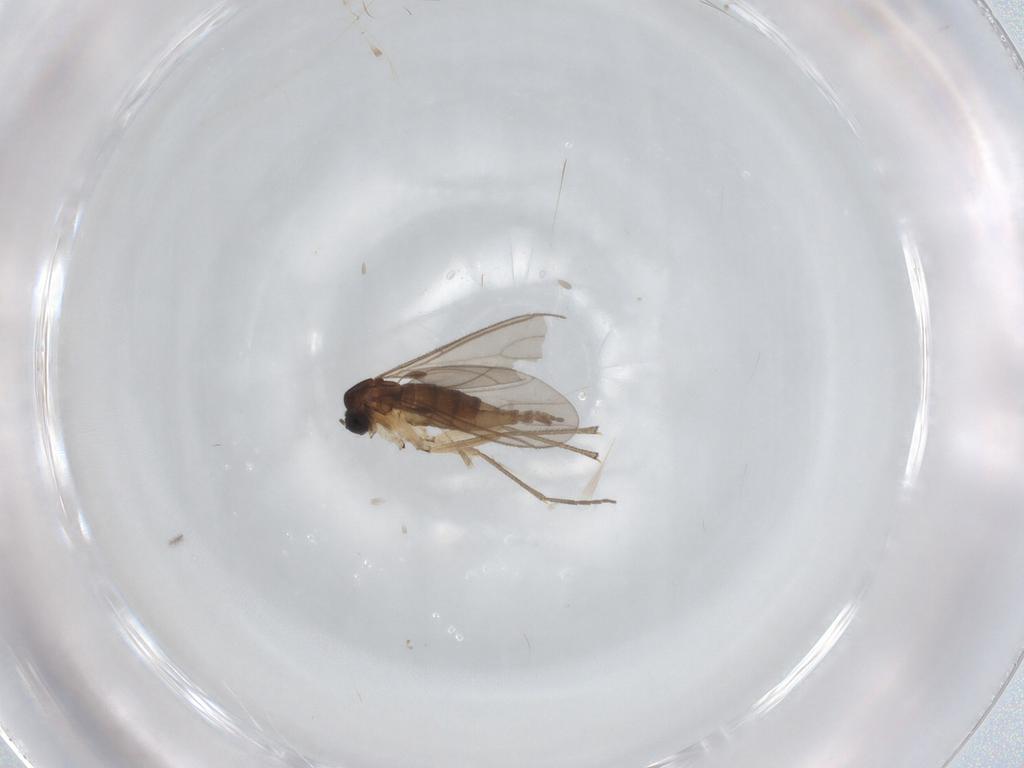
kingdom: Animalia
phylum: Arthropoda
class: Insecta
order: Diptera
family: Sciaridae
